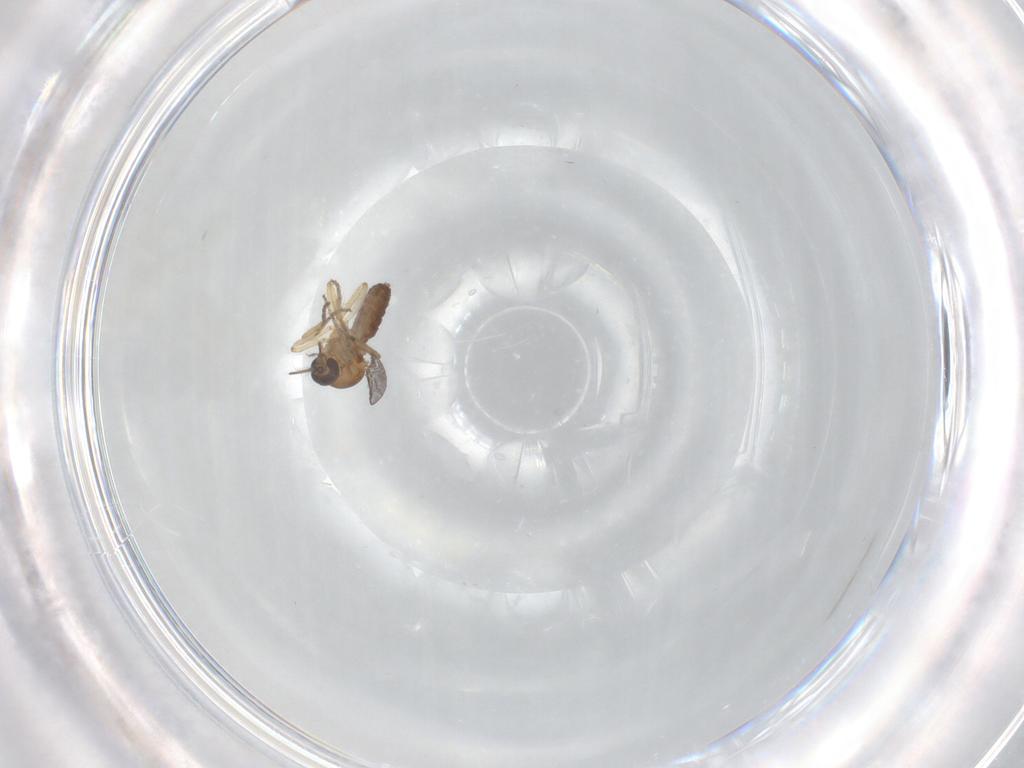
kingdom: Animalia
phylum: Arthropoda
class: Insecta
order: Diptera
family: Ceratopogonidae
